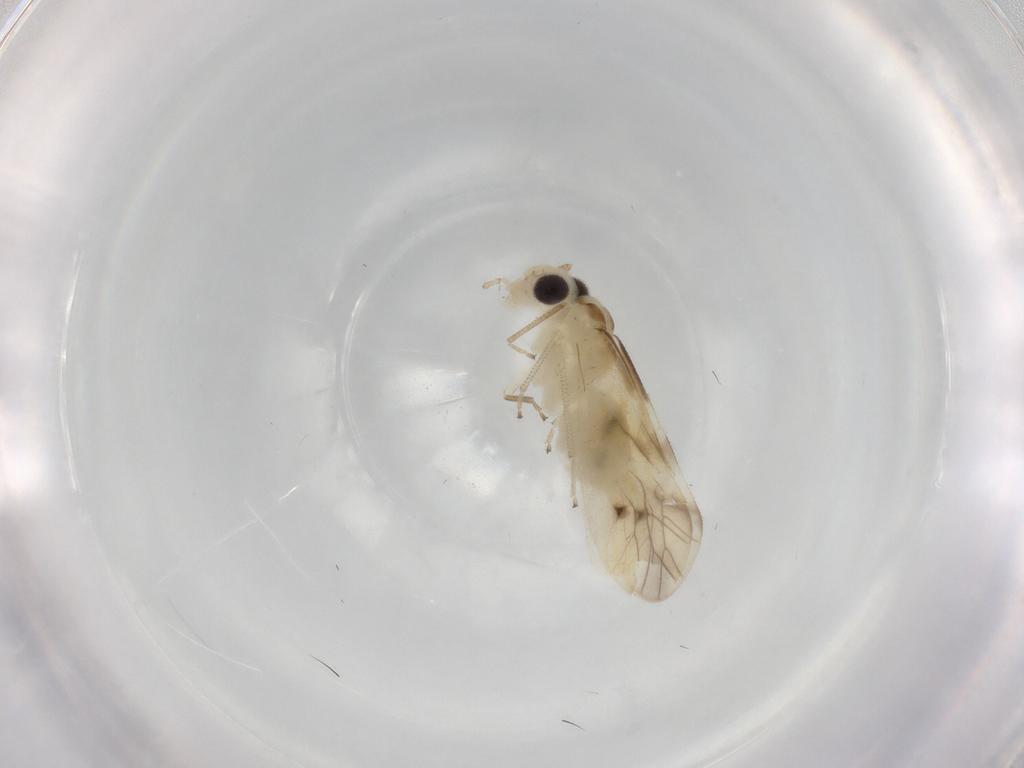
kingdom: Animalia
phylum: Arthropoda
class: Insecta
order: Psocodea
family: Caeciliusidae
